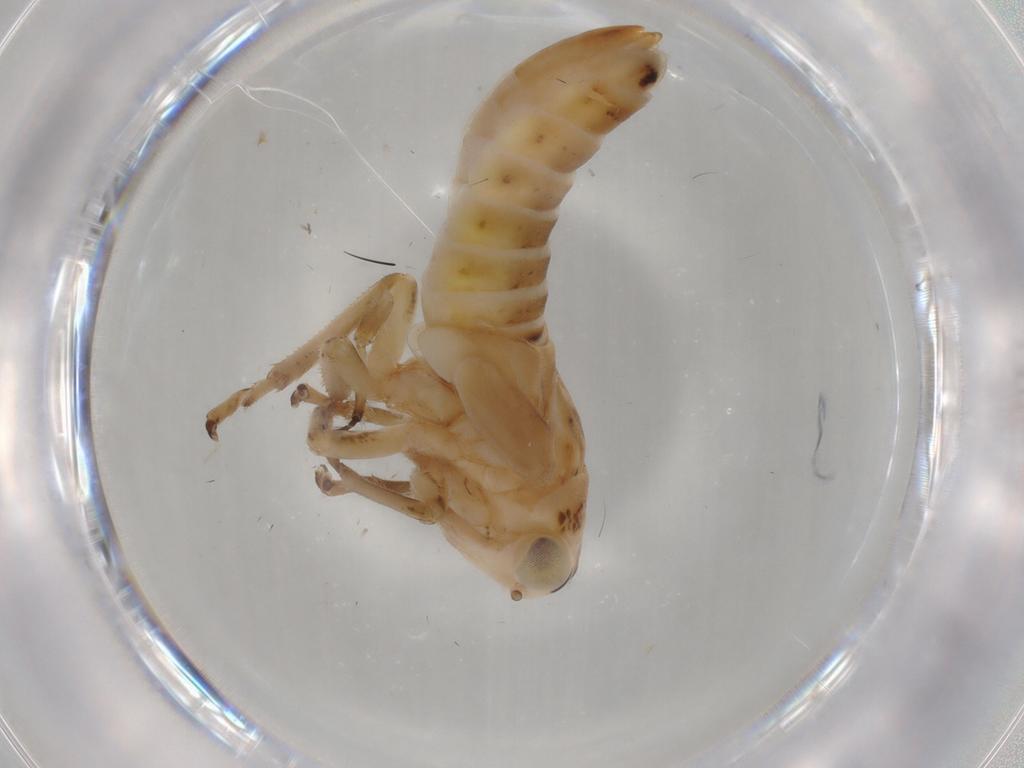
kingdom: Animalia
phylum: Arthropoda
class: Insecta
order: Hemiptera
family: Cicadellidae
